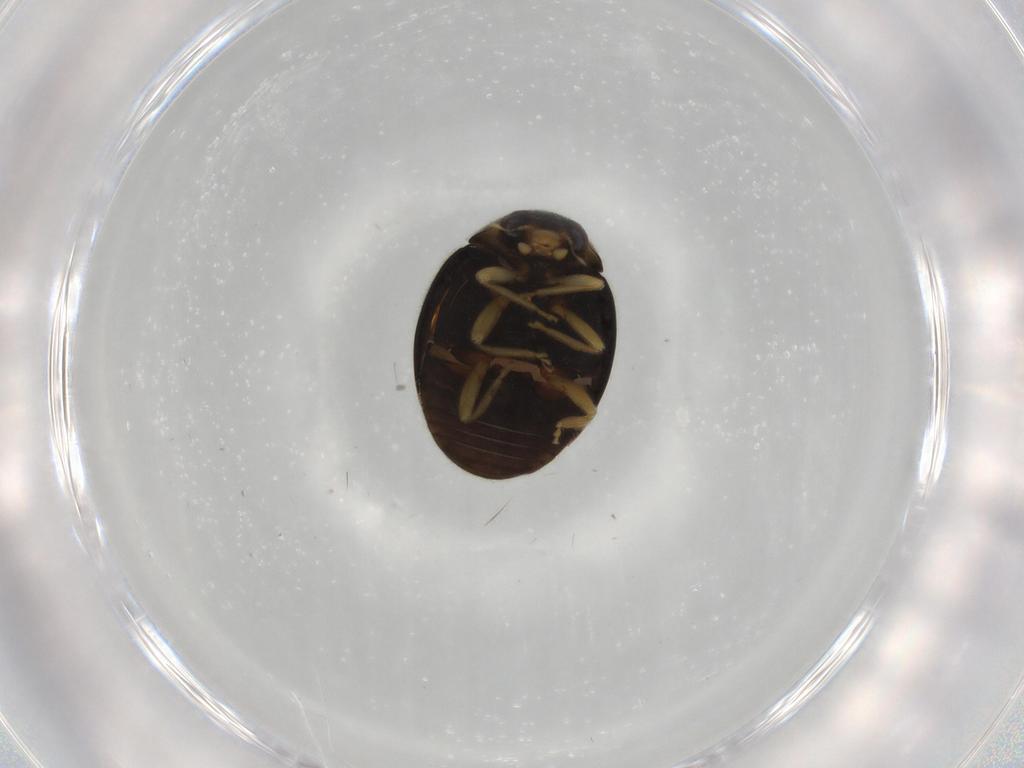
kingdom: Animalia
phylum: Arthropoda
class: Insecta
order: Coleoptera
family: Coccinellidae
